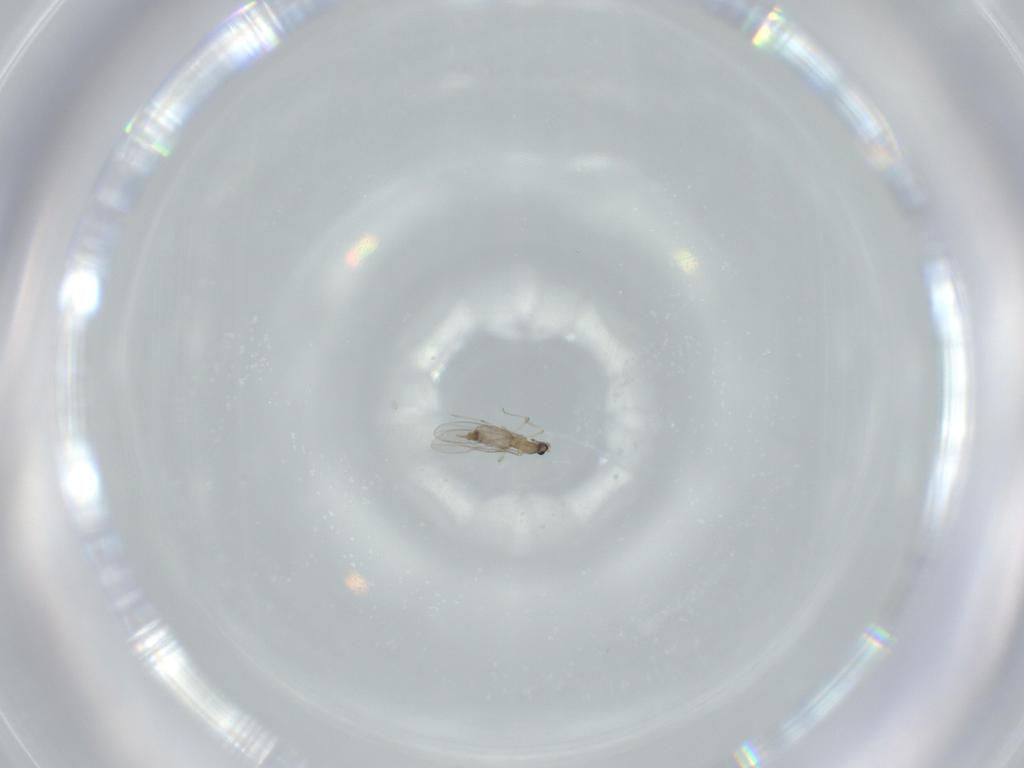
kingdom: Animalia
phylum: Arthropoda
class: Insecta
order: Diptera
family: Cecidomyiidae
